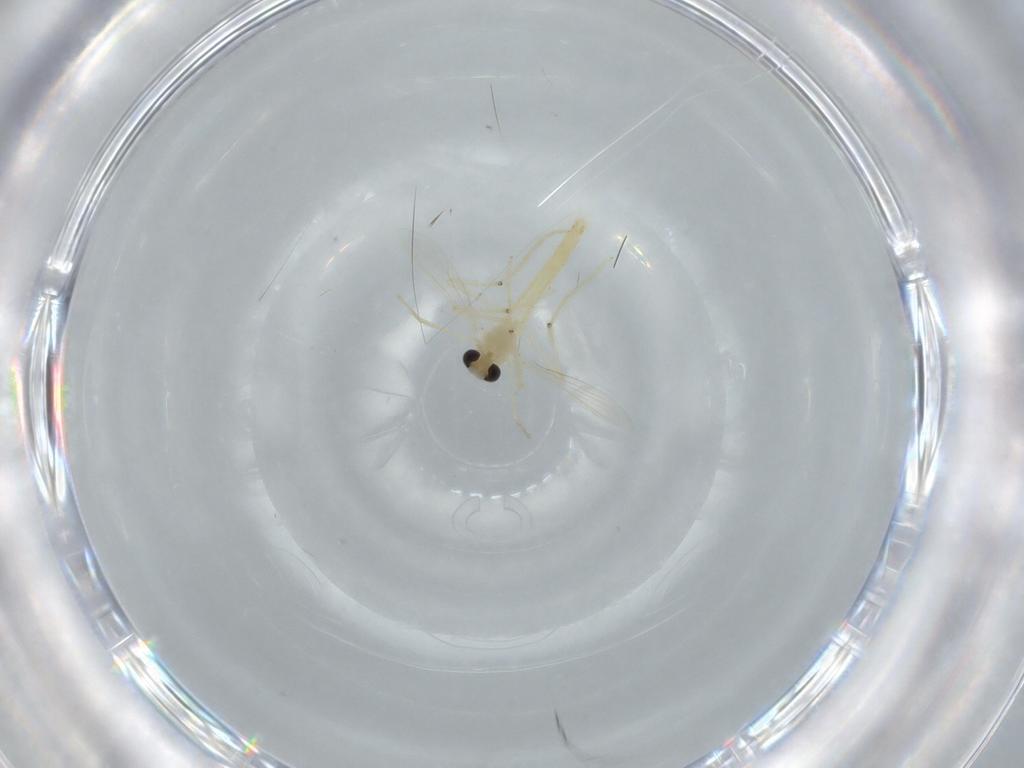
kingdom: Animalia
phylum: Arthropoda
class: Insecta
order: Diptera
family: Chironomidae
